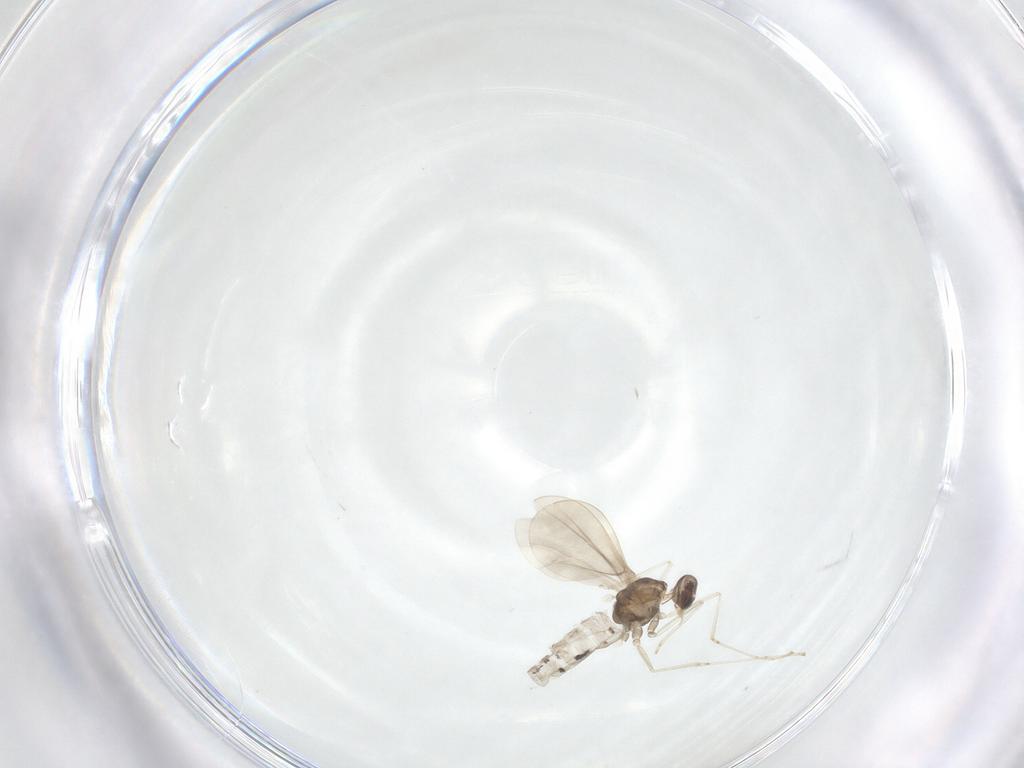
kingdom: Animalia
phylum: Arthropoda
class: Insecta
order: Diptera
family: Cecidomyiidae
